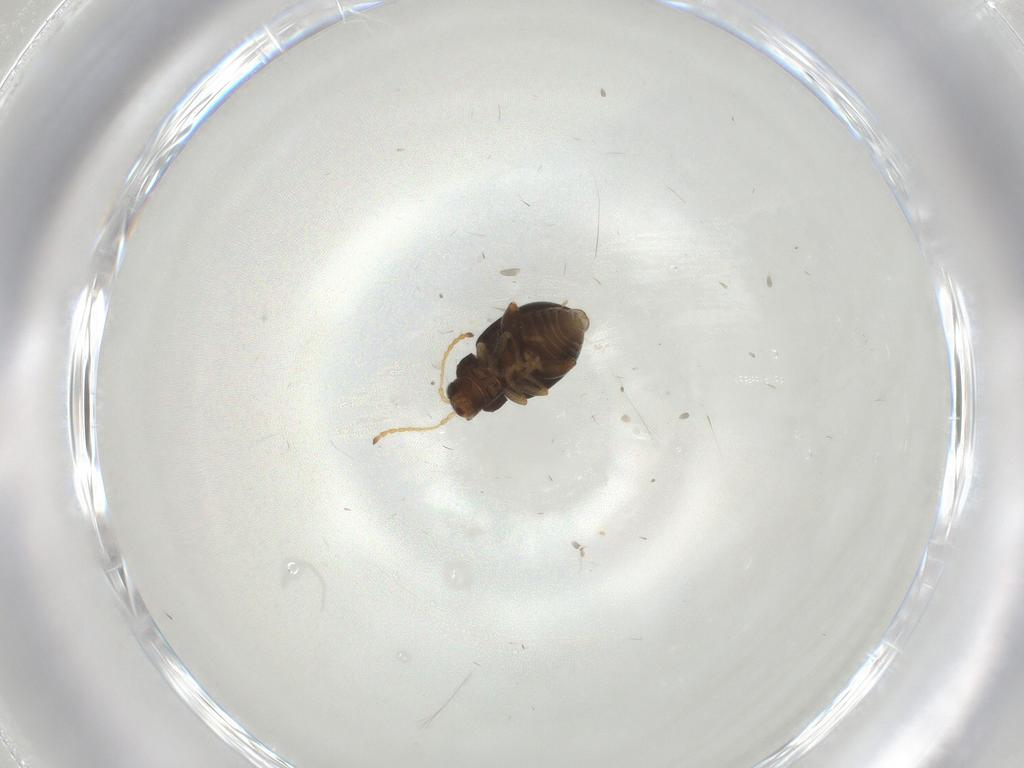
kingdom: Animalia
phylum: Arthropoda
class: Insecta
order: Coleoptera
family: Chrysomelidae
